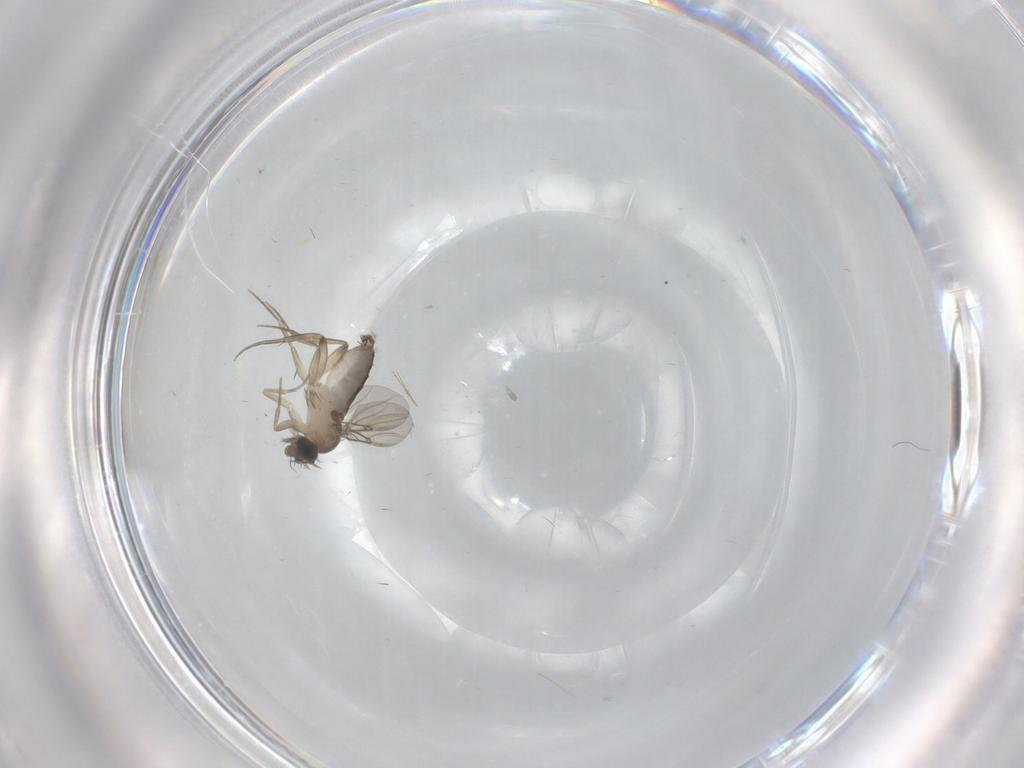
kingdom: Animalia
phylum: Arthropoda
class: Insecta
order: Diptera
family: Phoridae
